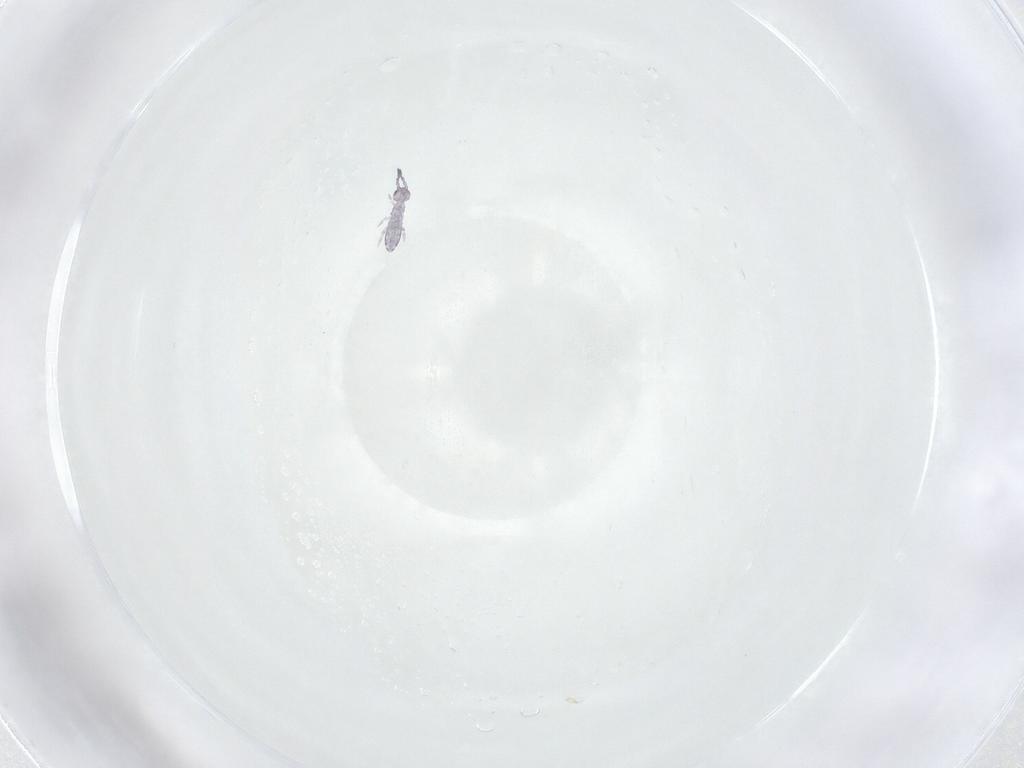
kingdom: Animalia
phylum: Arthropoda
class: Collembola
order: Entomobryomorpha
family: Entomobryidae
